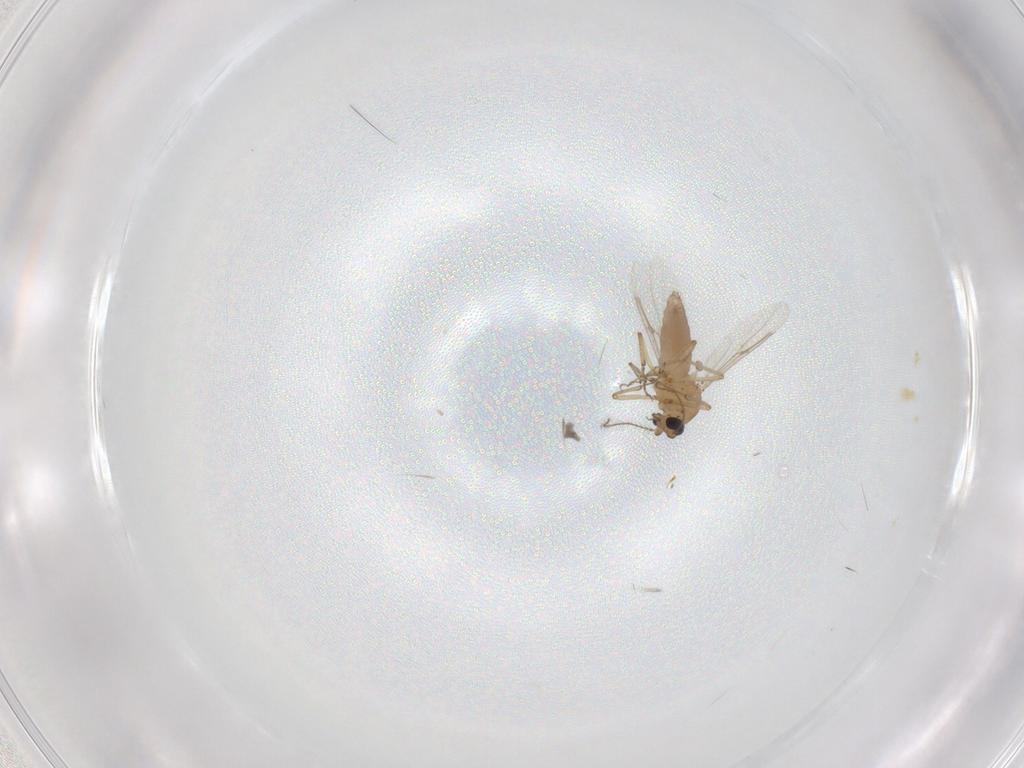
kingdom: Animalia
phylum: Arthropoda
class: Insecta
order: Diptera
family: Ceratopogonidae
